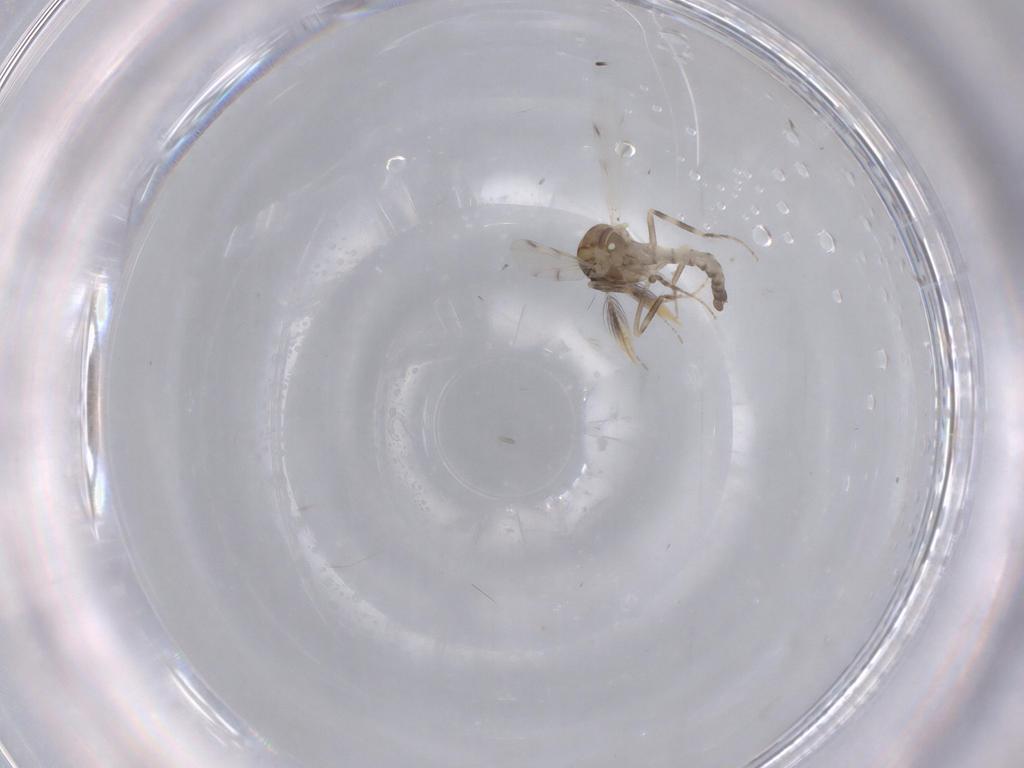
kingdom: Animalia
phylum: Arthropoda
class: Insecta
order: Diptera
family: Ceratopogonidae
